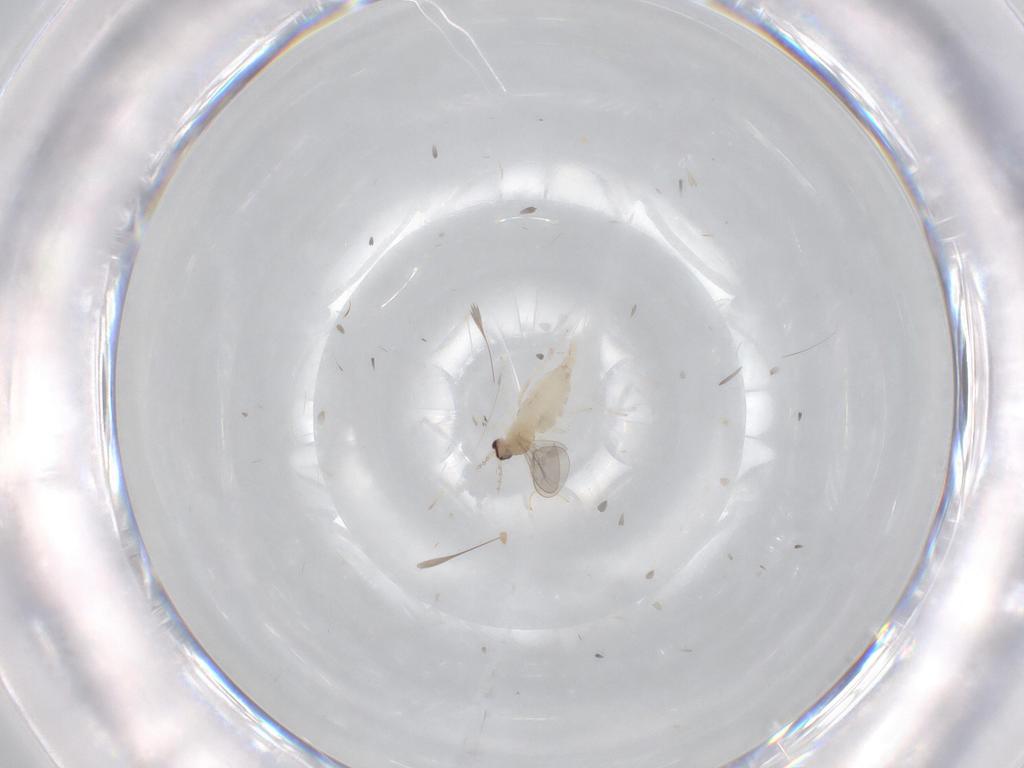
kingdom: Animalia
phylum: Arthropoda
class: Insecta
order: Diptera
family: Cecidomyiidae
